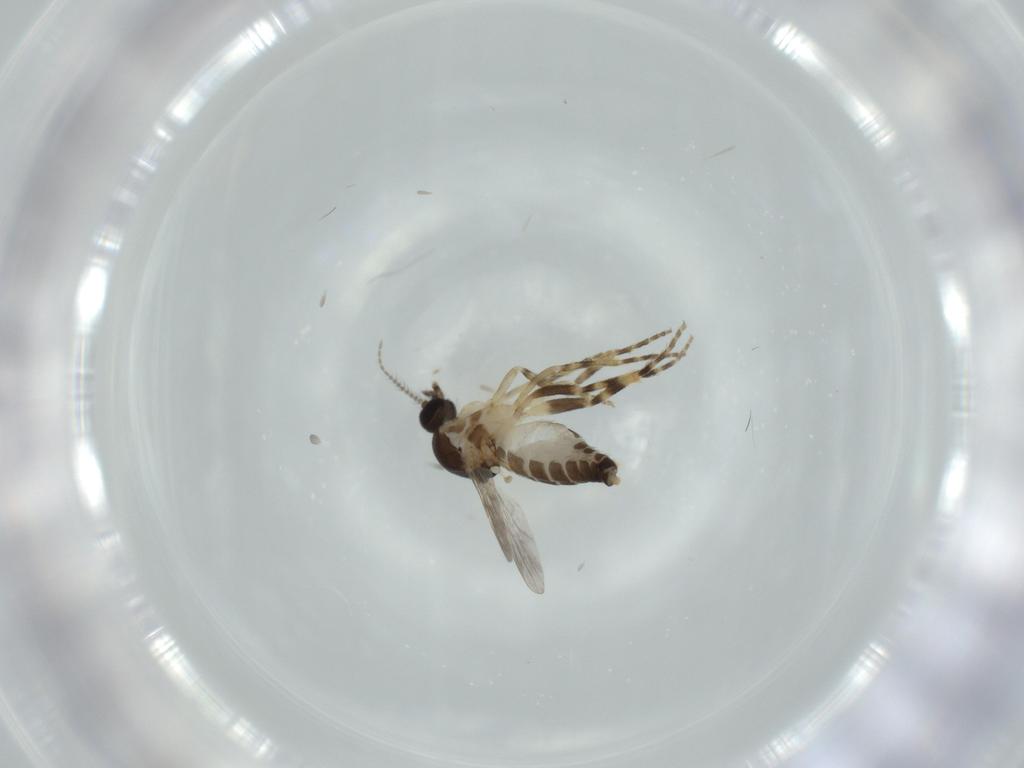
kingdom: Animalia
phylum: Arthropoda
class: Insecta
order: Diptera
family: Ceratopogonidae
